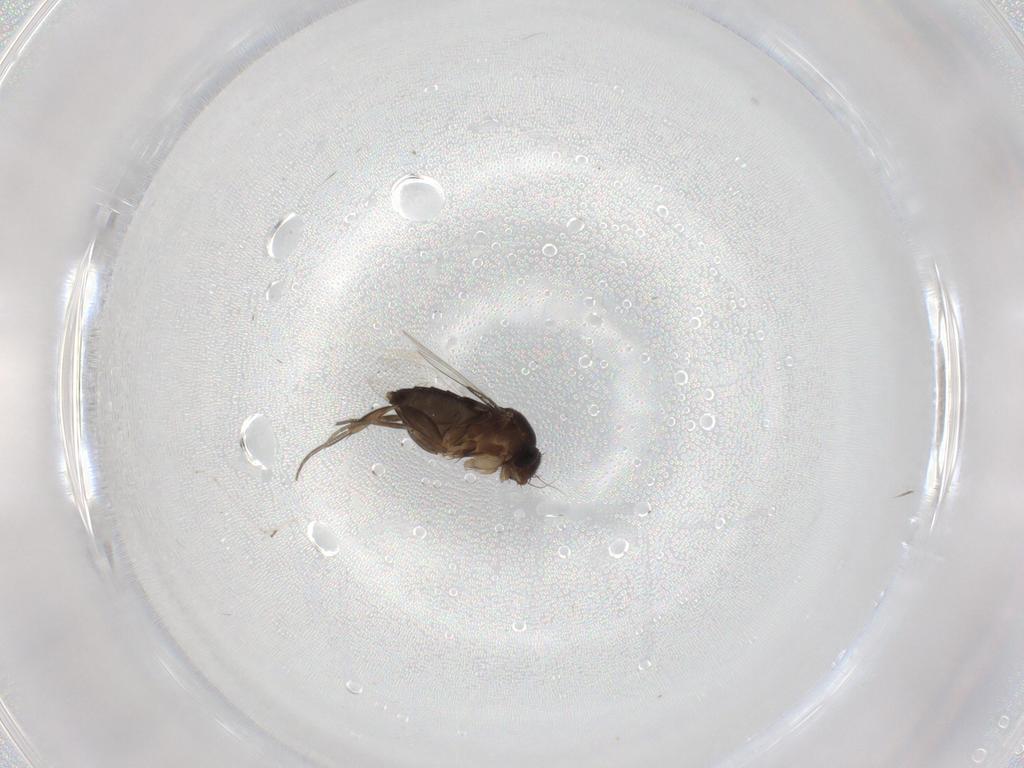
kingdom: Animalia
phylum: Arthropoda
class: Insecta
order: Diptera
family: Phoridae
